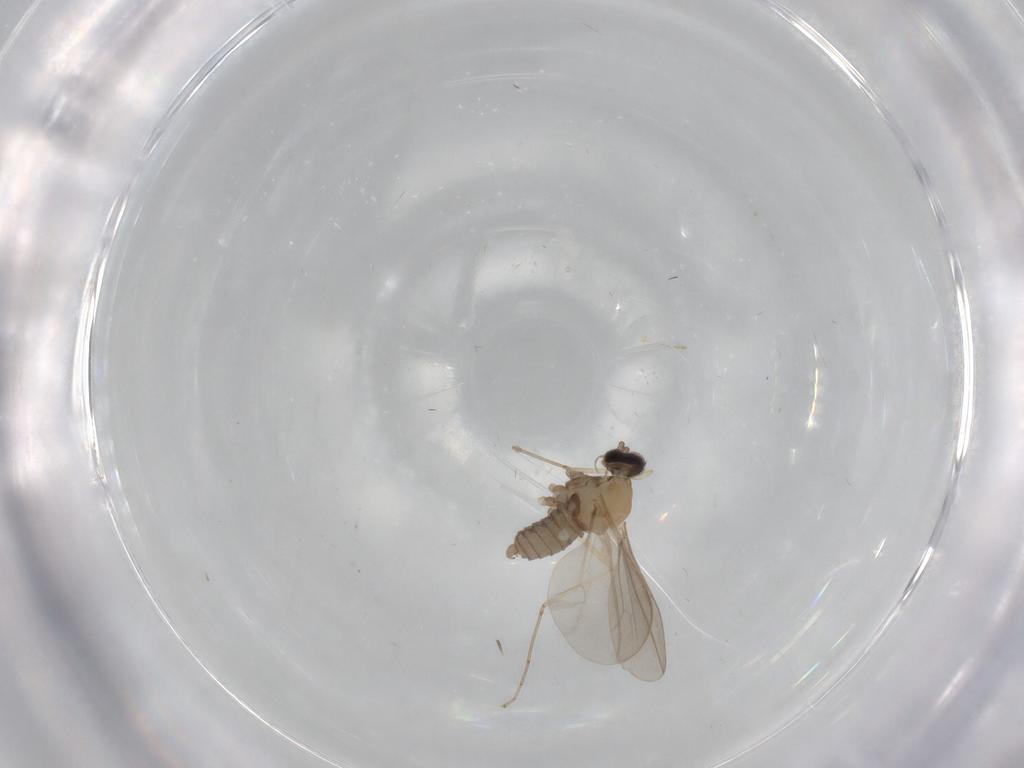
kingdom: Animalia
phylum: Arthropoda
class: Insecta
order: Diptera
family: Cecidomyiidae
